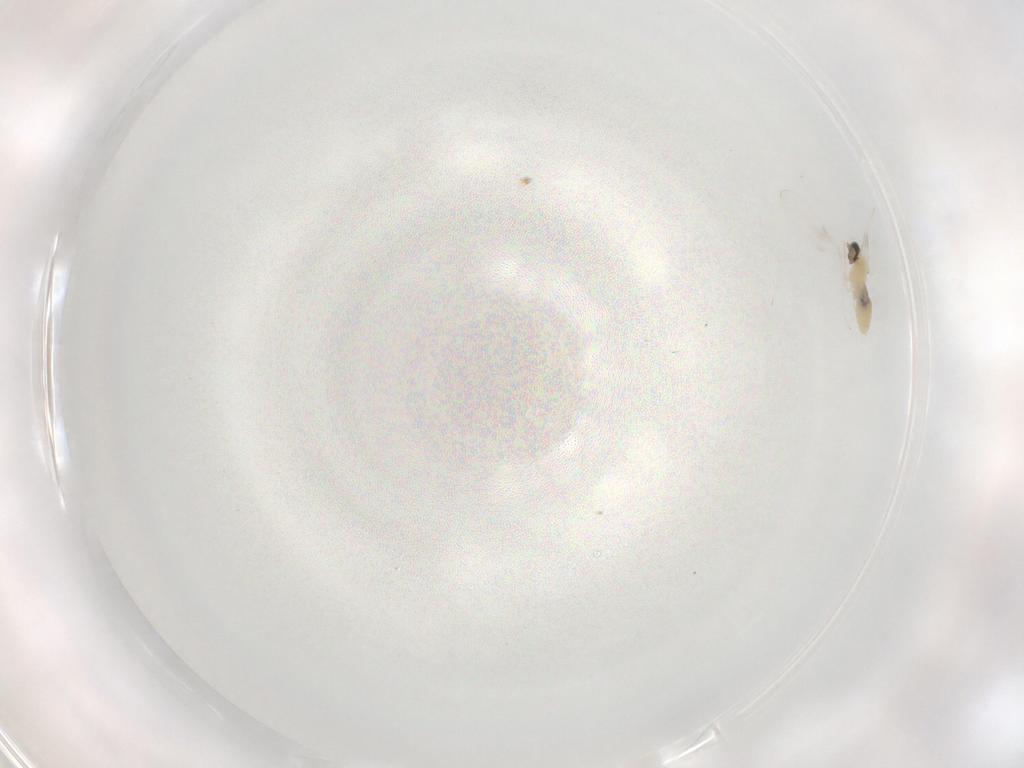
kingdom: Animalia
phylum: Arthropoda
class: Insecta
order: Diptera
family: Cecidomyiidae
